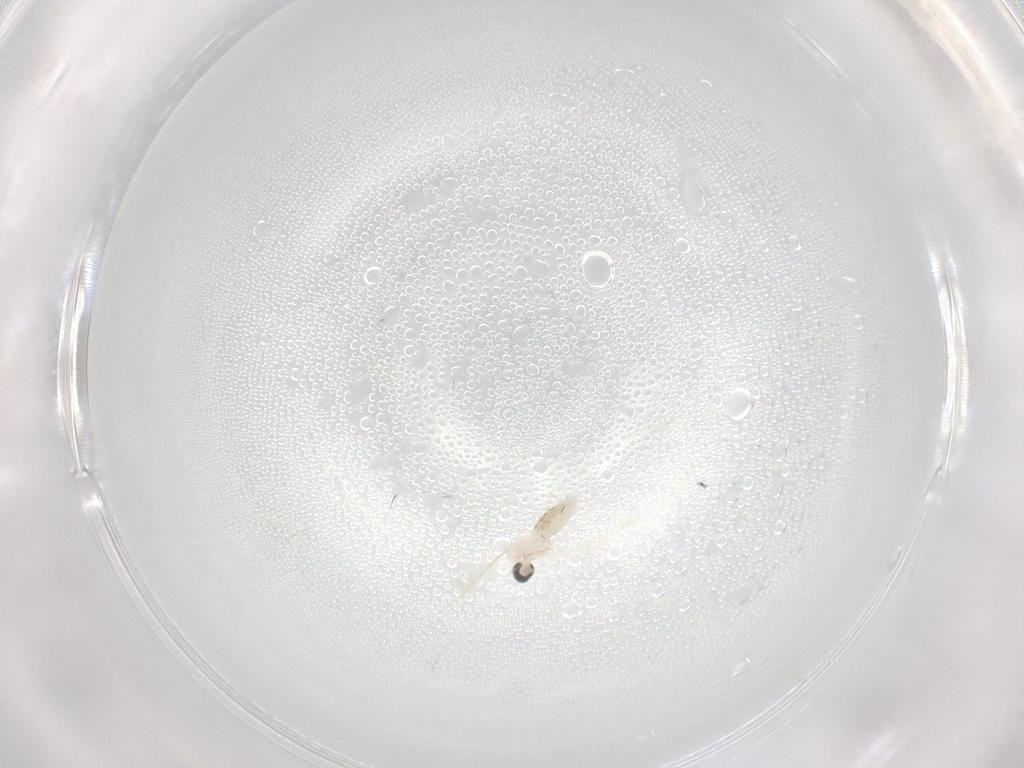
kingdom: Animalia
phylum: Arthropoda
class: Insecta
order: Diptera
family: Cecidomyiidae
